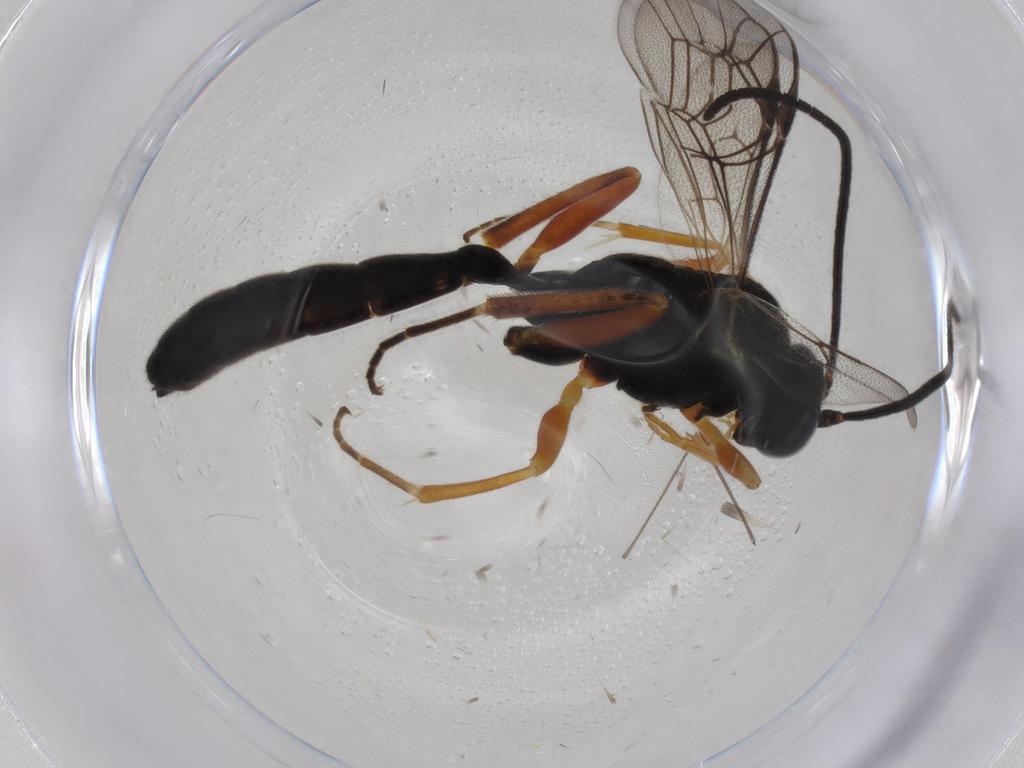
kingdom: Animalia
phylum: Arthropoda
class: Insecta
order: Hymenoptera
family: Ichneumonidae
